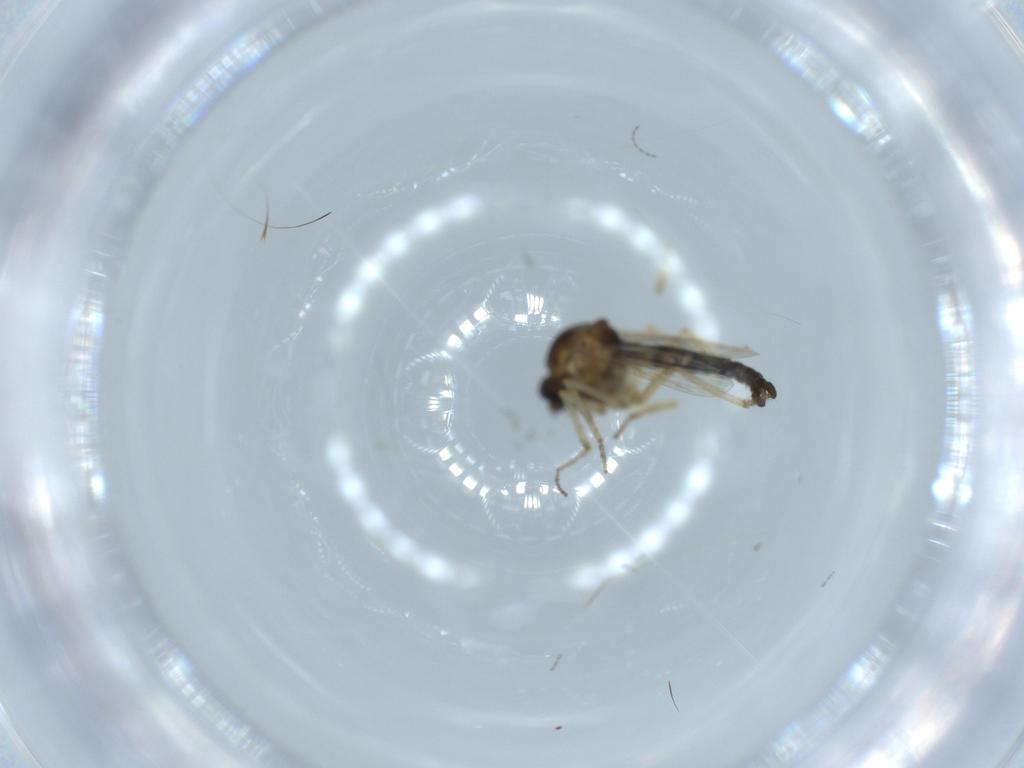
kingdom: Animalia
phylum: Arthropoda
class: Insecta
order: Diptera
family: Ceratopogonidae
